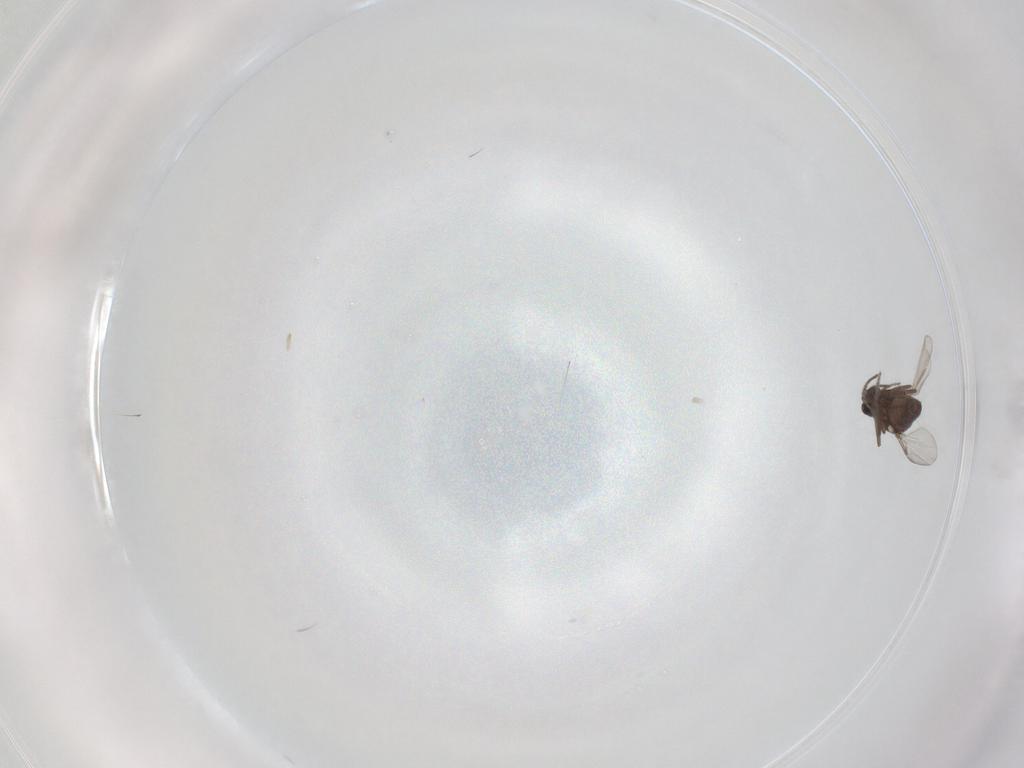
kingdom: Animalia
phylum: Arthropoda
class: Insecta
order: Diptera
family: Ceratopogonidae
